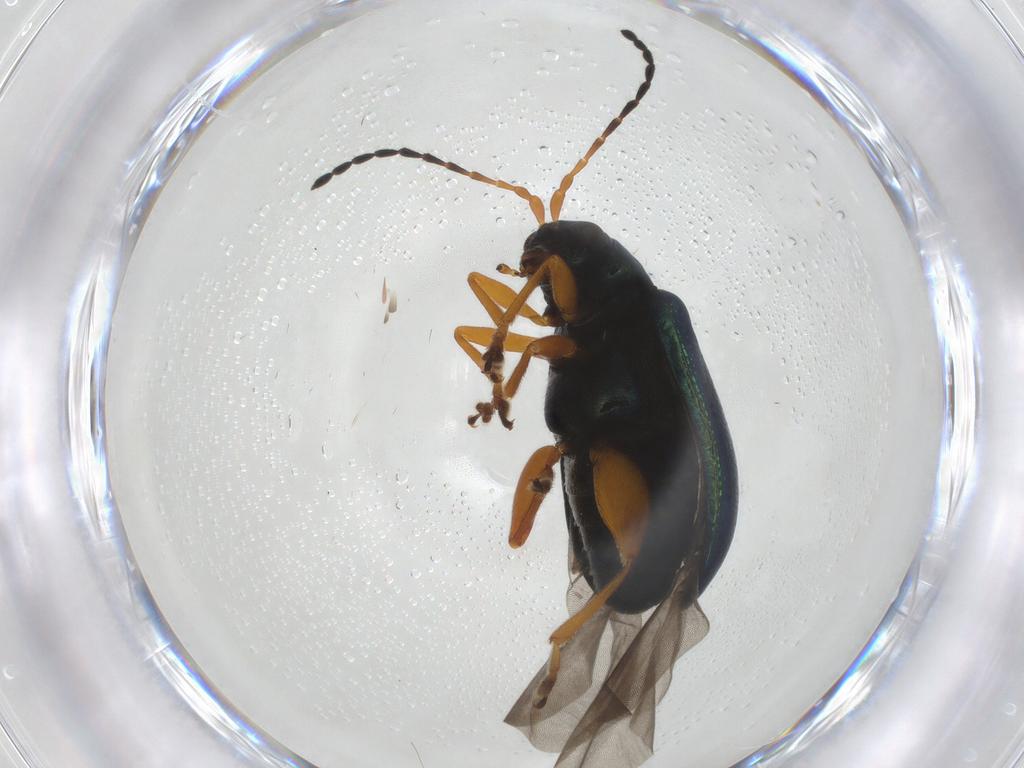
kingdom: Animalia
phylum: Arthropoda
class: Insecta
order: Coleoptera
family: Chrysomelidae
